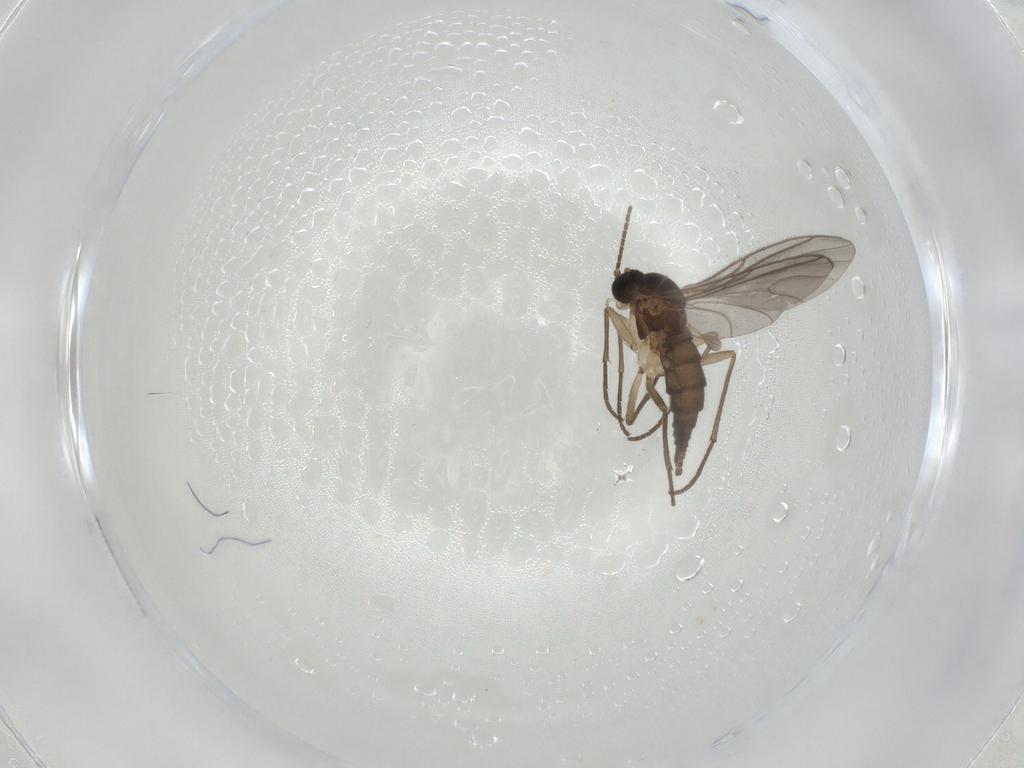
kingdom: Animalia
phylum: Arthropoda
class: Insecta
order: Diptera
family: Sciaridae
